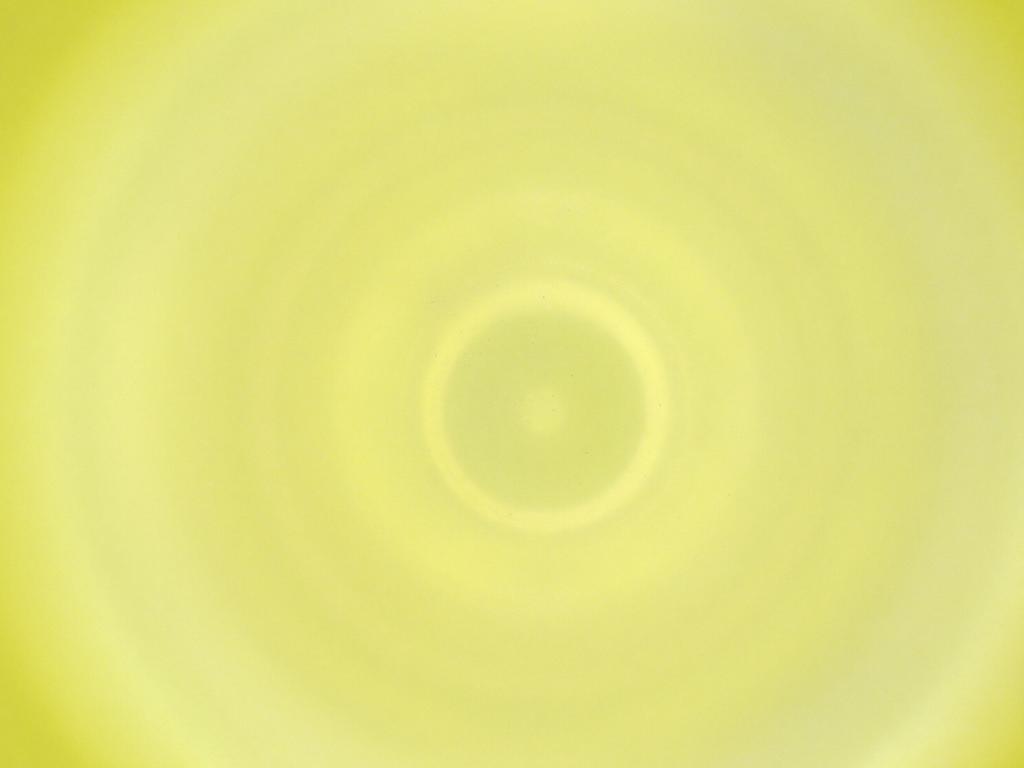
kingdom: Animalia
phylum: Arthropoda
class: Insecta
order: Diptera
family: Cecidomyiidae
